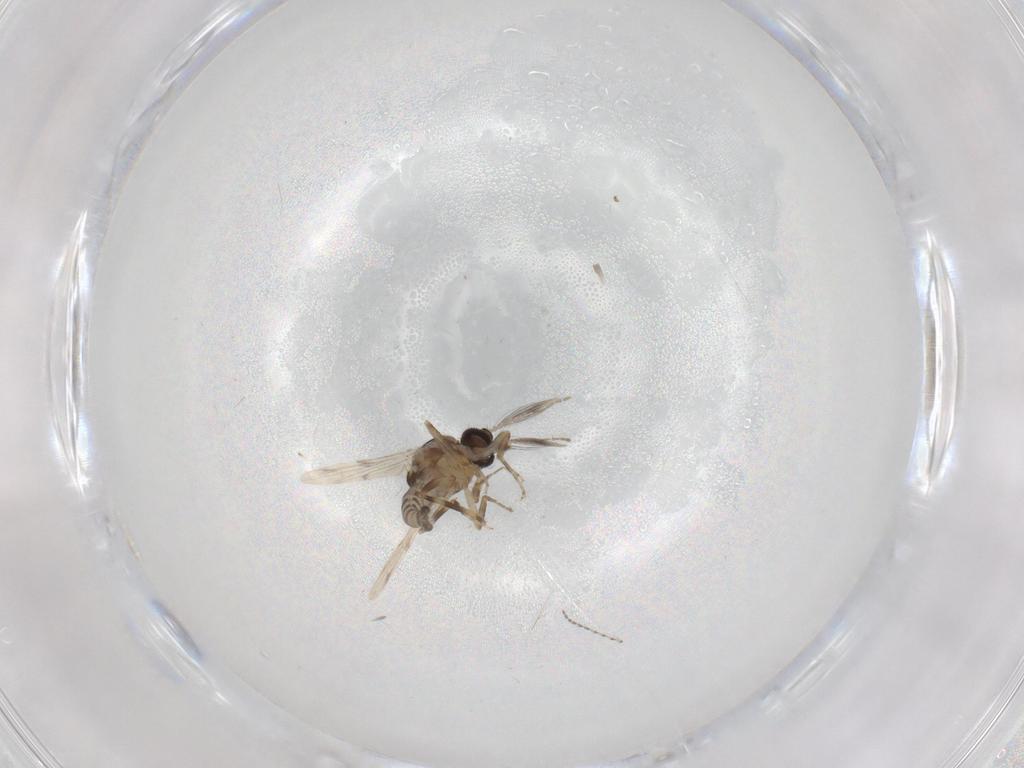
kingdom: Animalia
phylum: Arthropoda
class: Insecta
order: Diptera
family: Ceratopogonidae
